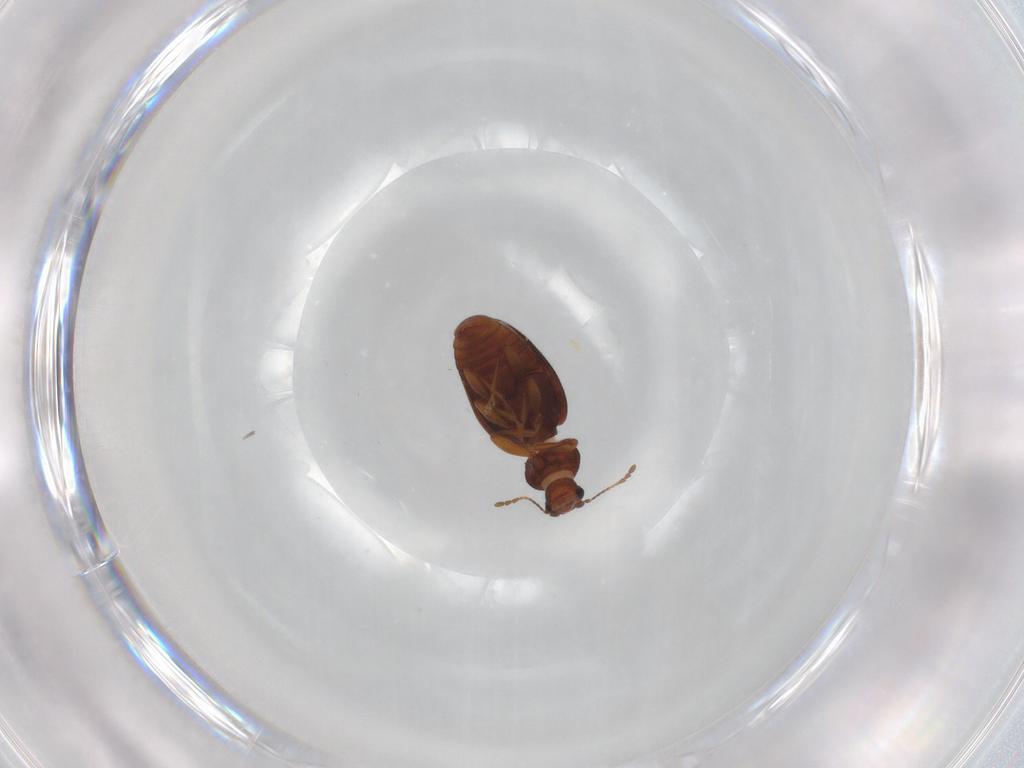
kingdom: Animalia
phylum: Arthropoda
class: Insecta
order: Coleoptera
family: Latridiidae
